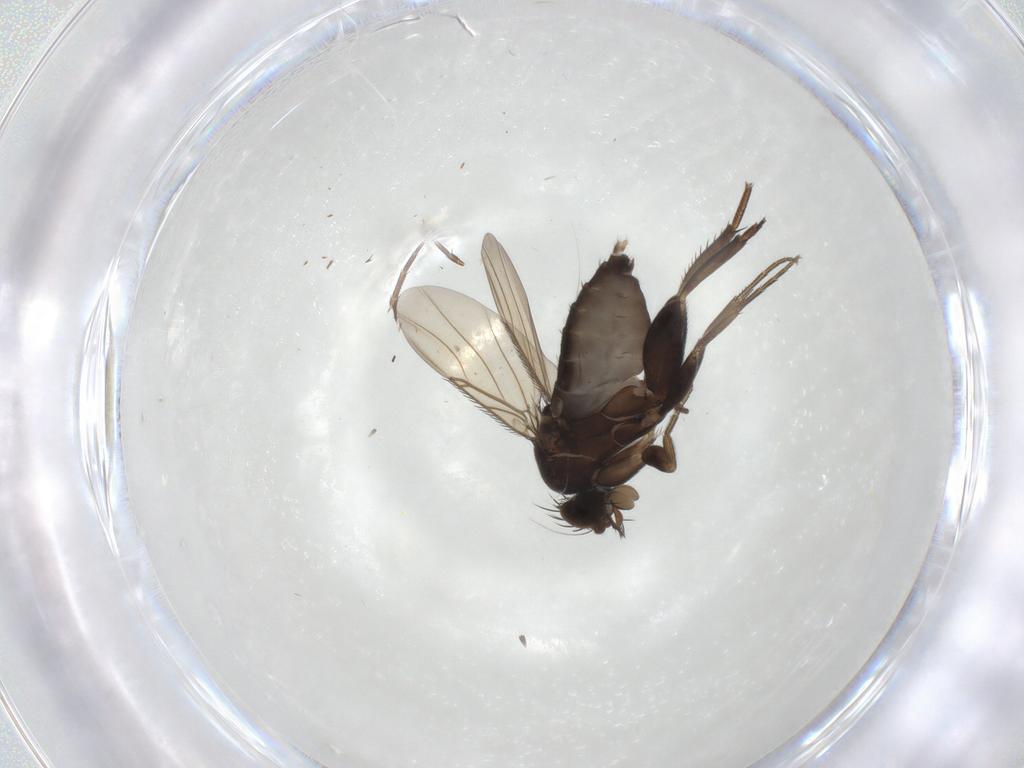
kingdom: Animalia
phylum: Arthropoda
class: Insecta
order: Diptera
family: Phoridae
